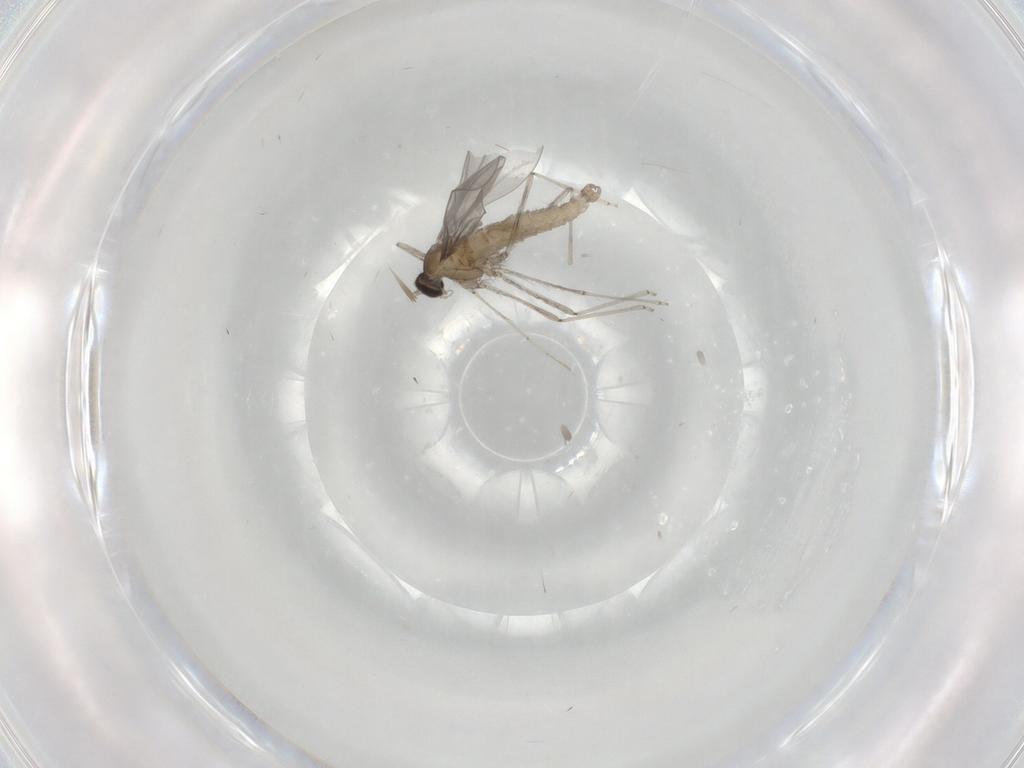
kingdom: Animalia
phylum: Arthropoda
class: Insecta
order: Diptera
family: Cecidomyiidae
